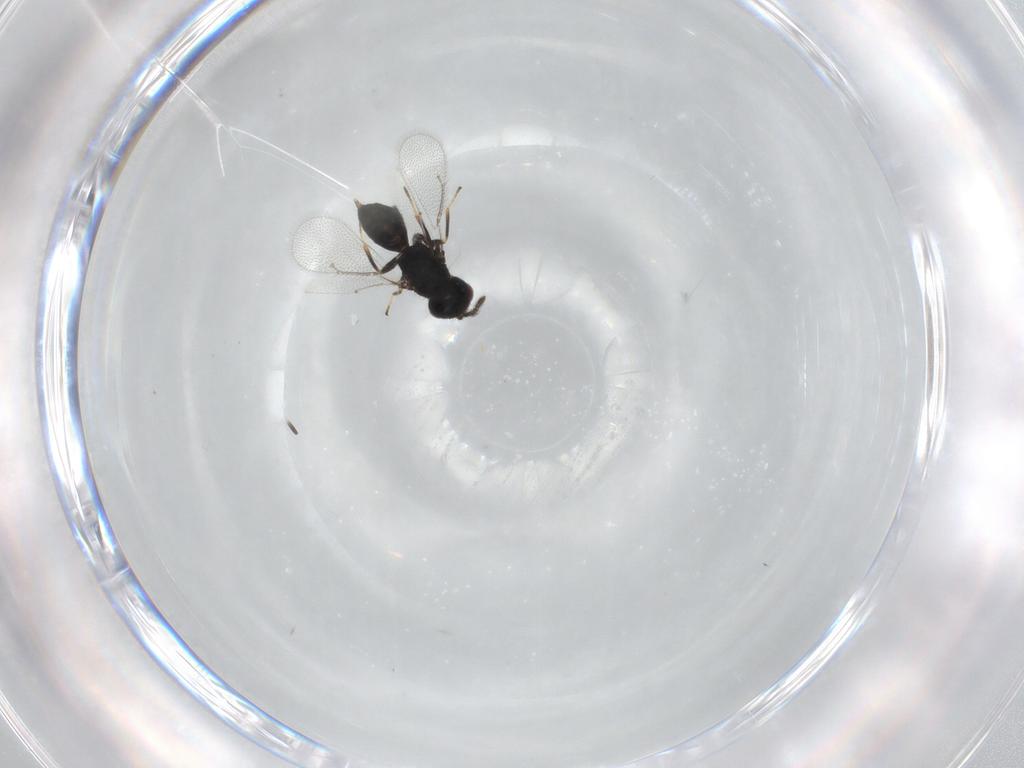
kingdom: Animalia
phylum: Arthropoda
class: Insecta
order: Hymenoptera
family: Eulophidae
